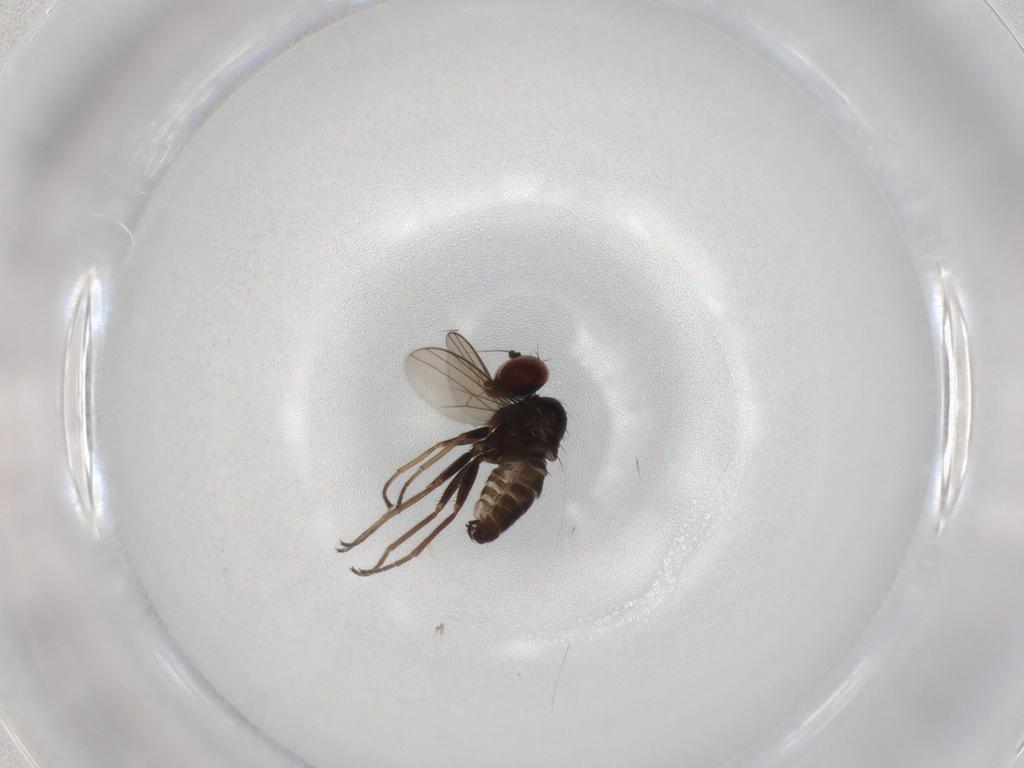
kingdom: Animalia
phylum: Arthropoda
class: Insecta
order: Diptera
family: Dolichopodidae
